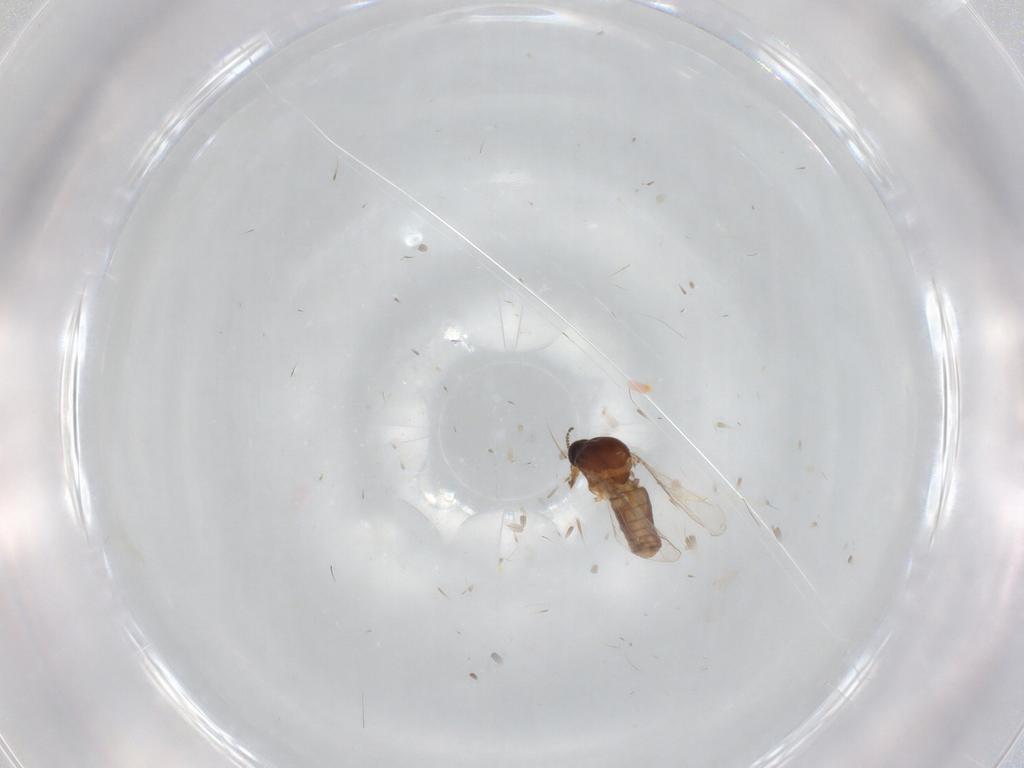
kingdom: Animalia
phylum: Arthropoda
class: Insecta
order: Diptera
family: Ceratopogonidae
